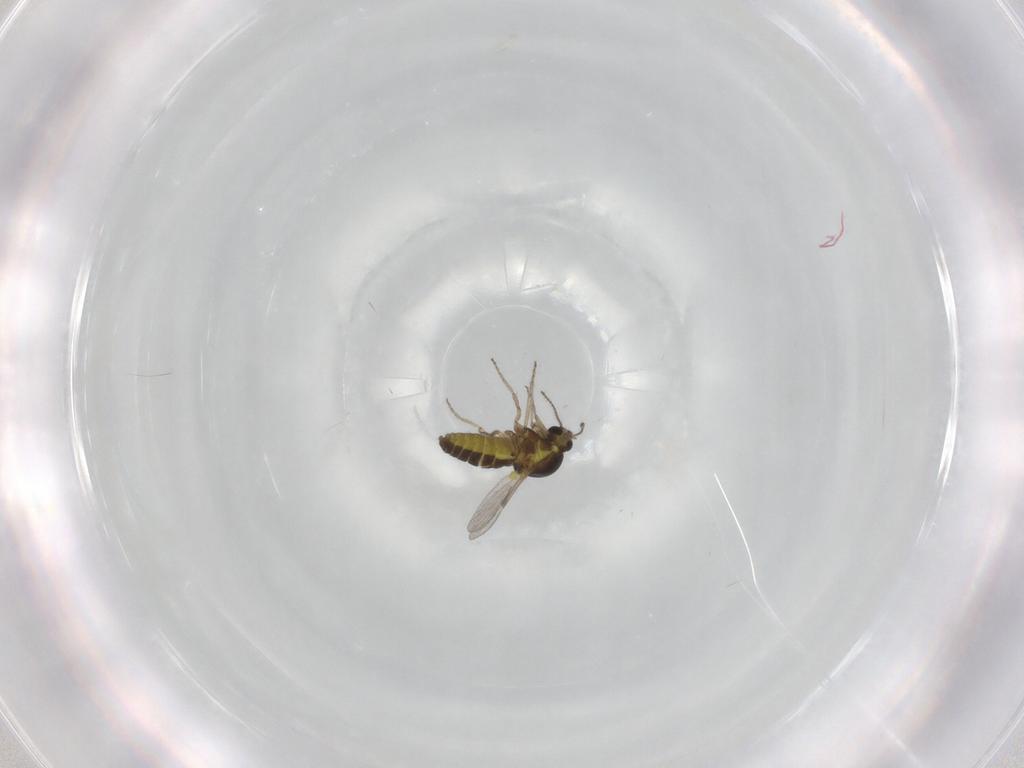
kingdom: Animalia
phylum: Arthropoda
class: Insecta
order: Diptera
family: Ceratopogonidae
